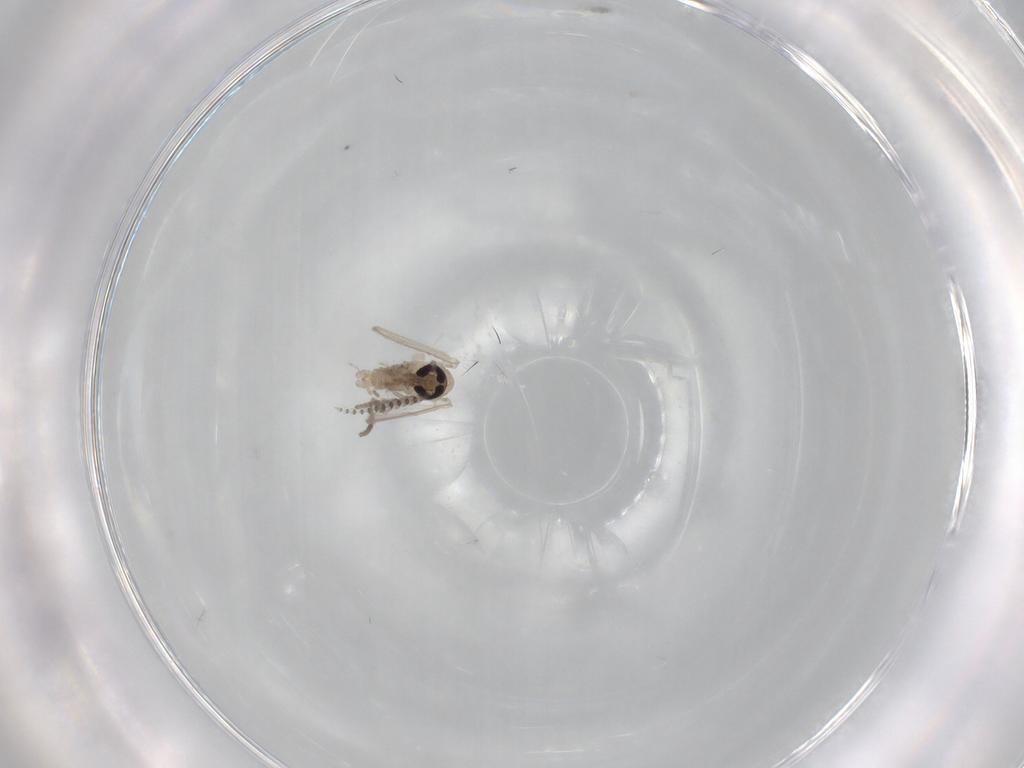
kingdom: Animalia
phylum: Arthropoda
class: Insecta
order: Diptera
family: Psychodidae
